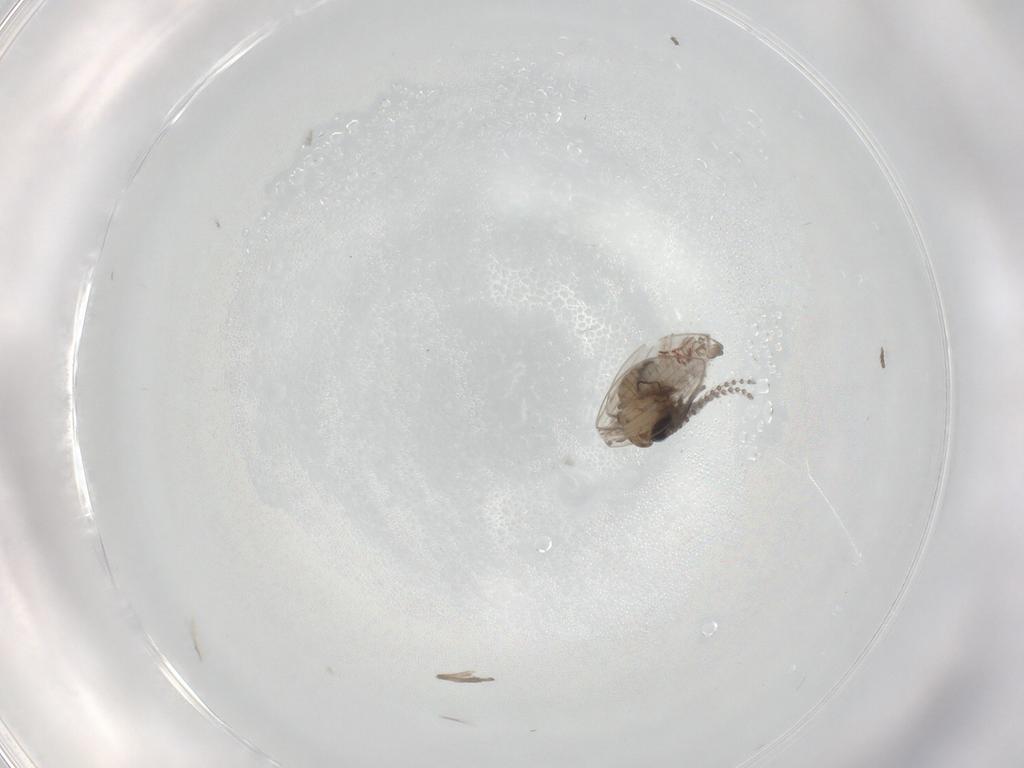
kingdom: Animalia
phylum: Arthropoda
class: Insecta
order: Diptera
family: Psychodidae
